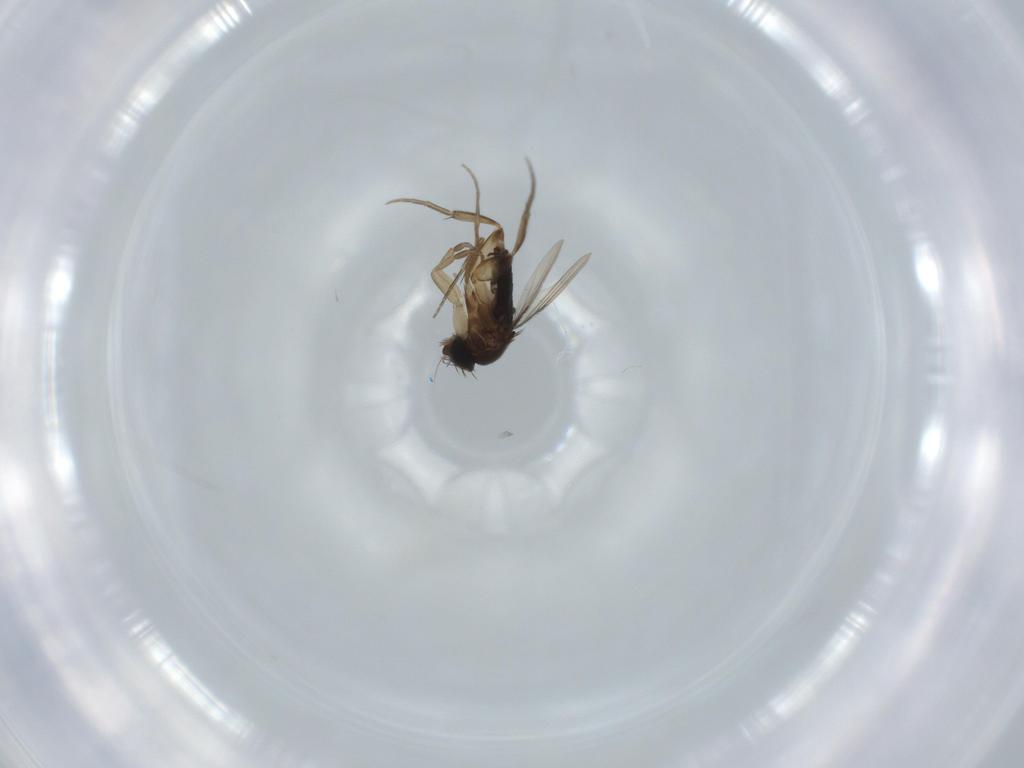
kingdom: Animalia
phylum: Arthropoda
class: Insecta
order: Diptera
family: Phoridae
